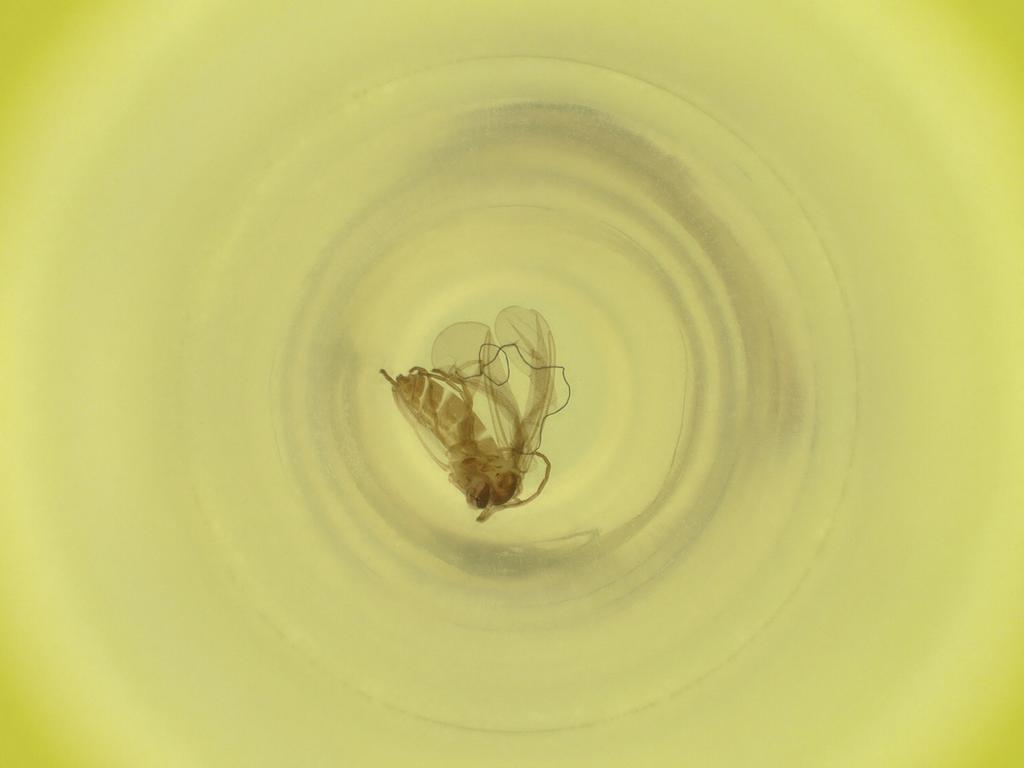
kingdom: Animalia
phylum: Arthropoda
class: Insecta
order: Diptera
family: Cecidomyiidae
